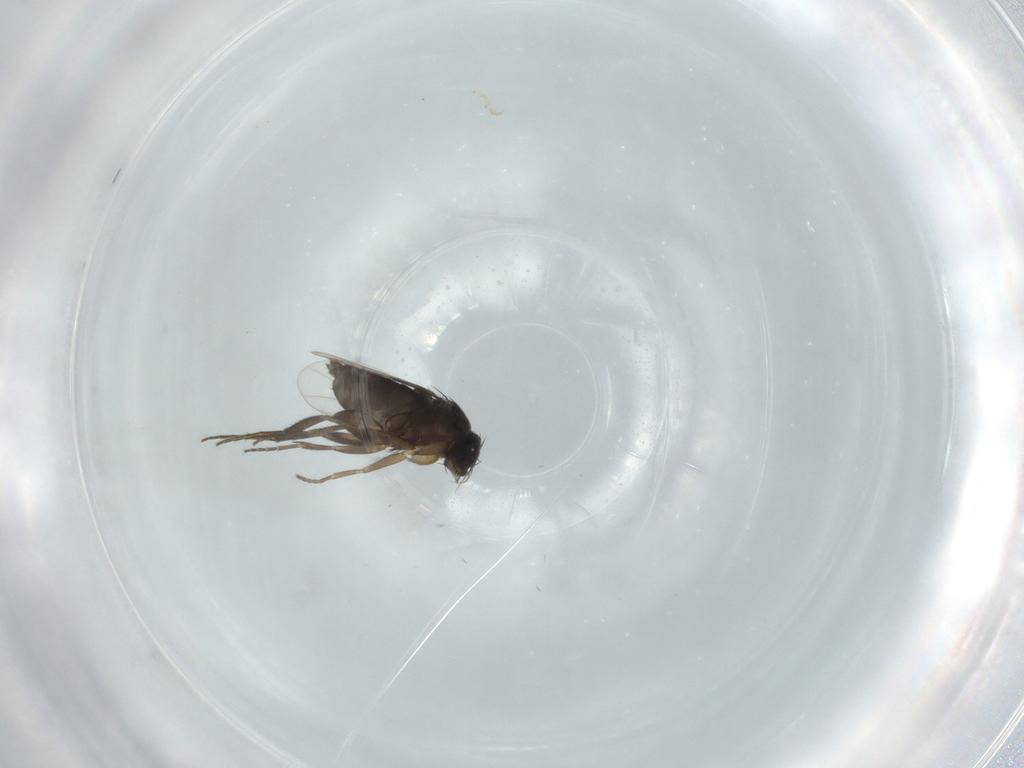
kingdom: Animalia
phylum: Arthropoda
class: Insecta
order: Diptera
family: Phoridae
